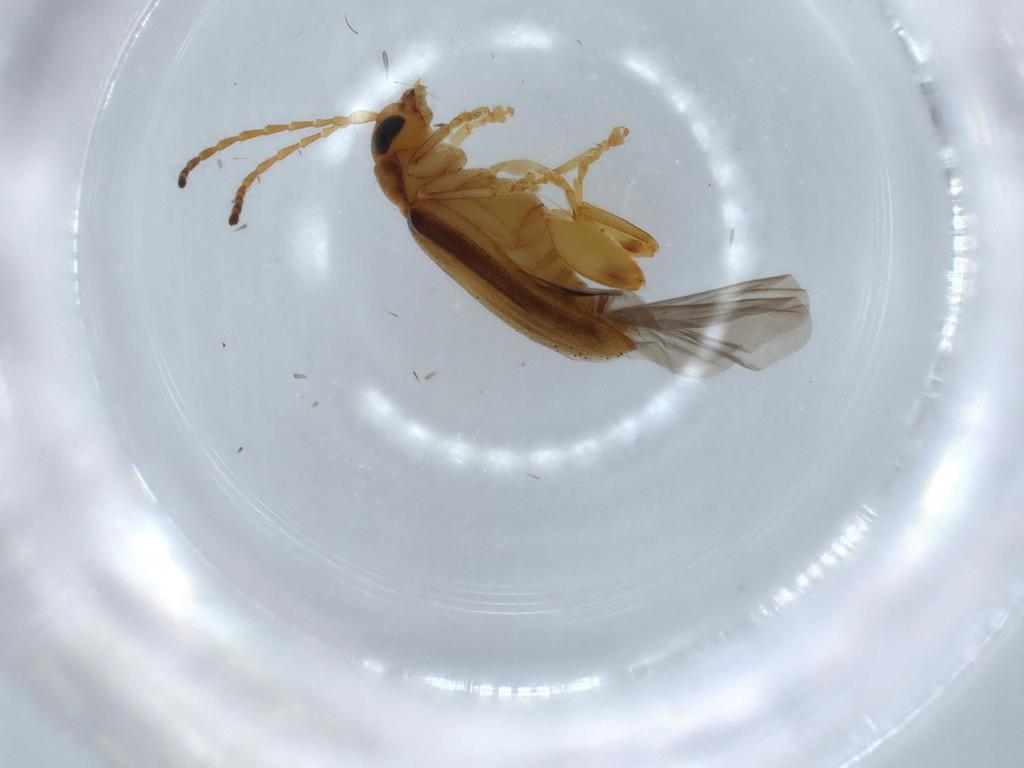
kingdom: Animalia
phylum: Arthropoda
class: Insecta
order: Coleoptera
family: Chrysomelidae
